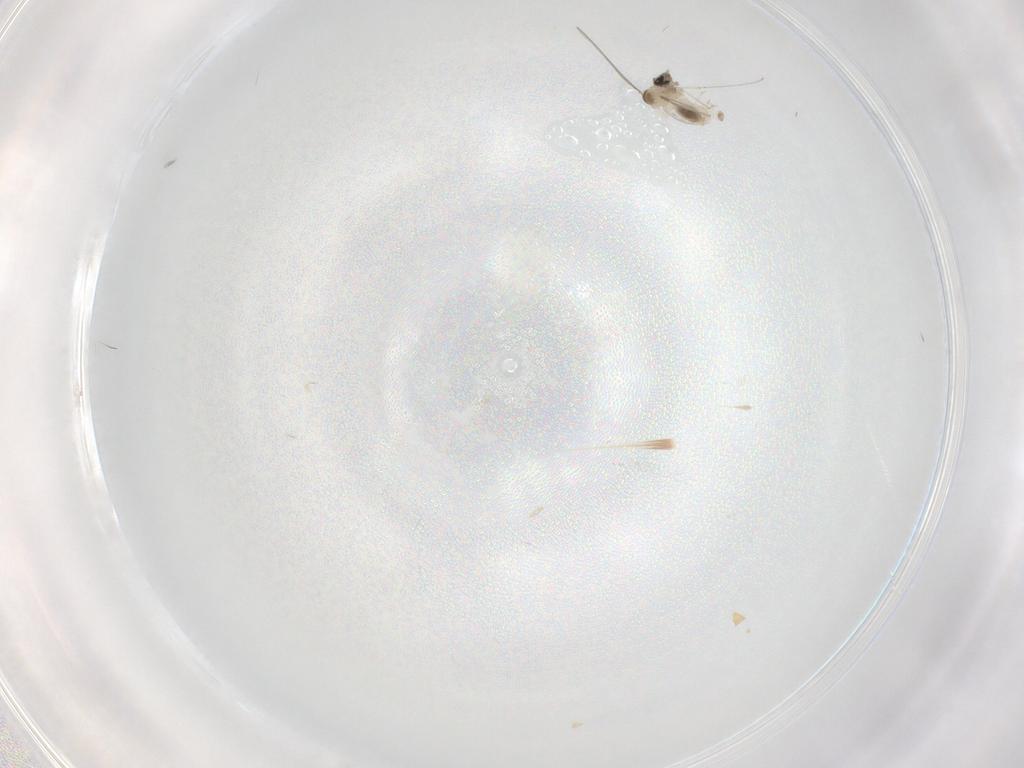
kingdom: Animalia
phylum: Arthropoda
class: Insecta
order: Diptera
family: Cecidomyiidae
